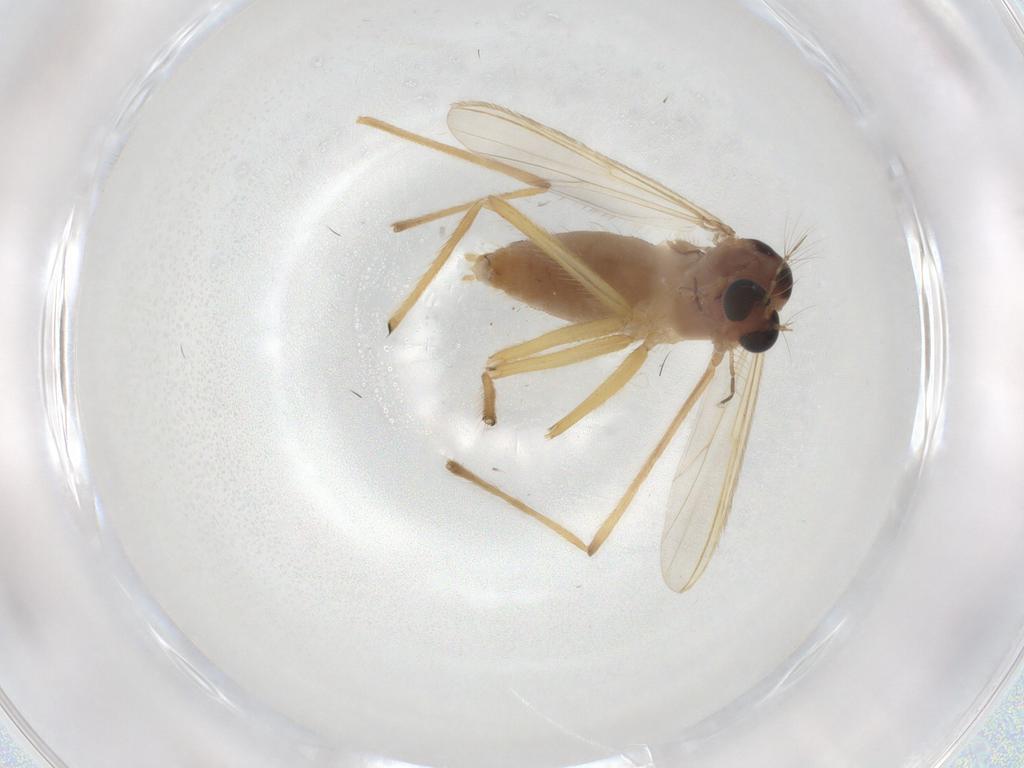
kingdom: Animalia
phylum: Arthropoda
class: Insecta
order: Diptera
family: Chironomidae
